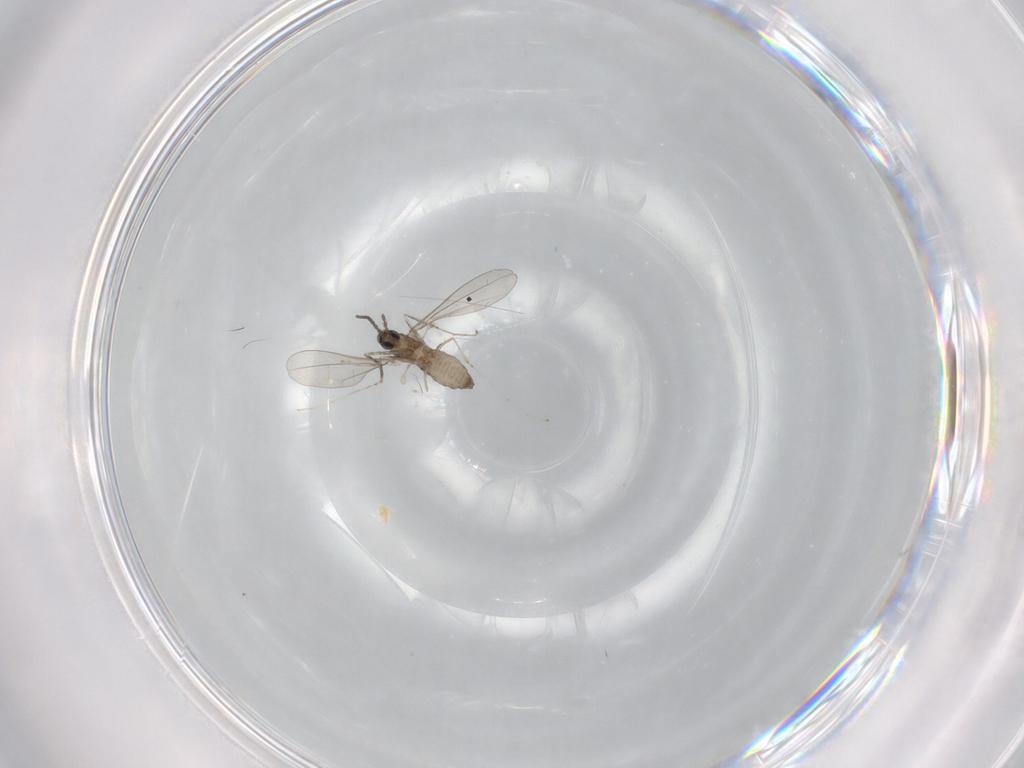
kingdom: Animalia
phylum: Arthropoda
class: Insecta
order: Diptera
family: Cecidomyiidae
